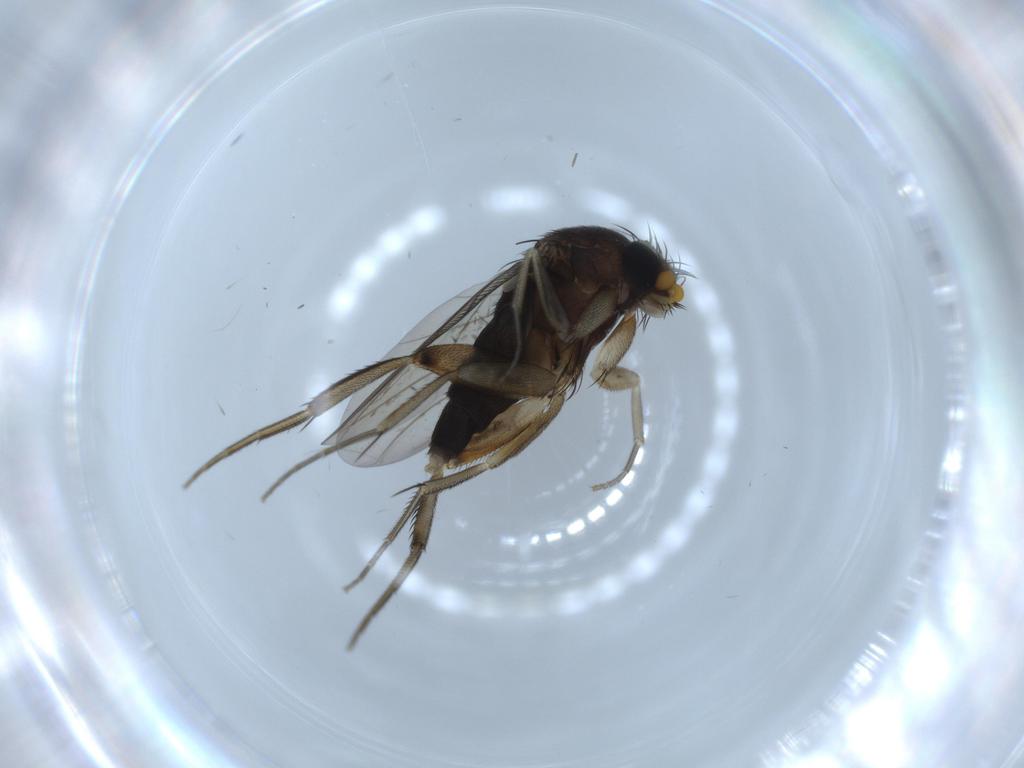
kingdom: Animalia
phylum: Arthropoda
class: Insecta
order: Diptera
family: Phoridae
